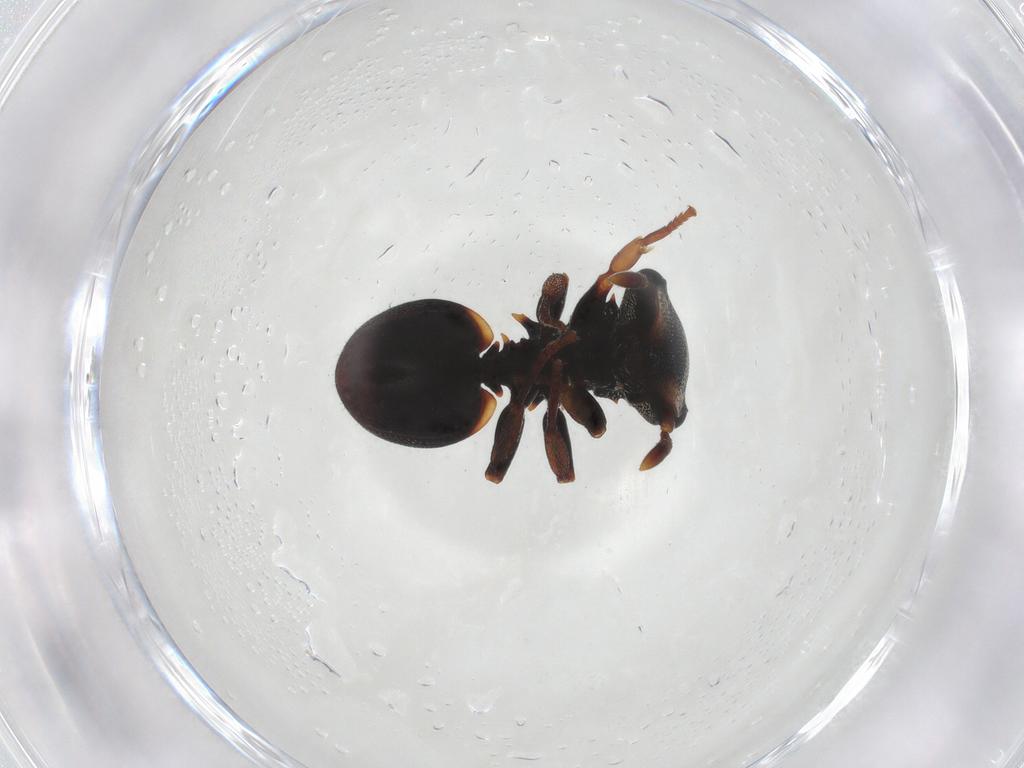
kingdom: Animalia
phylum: Arthropoda
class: Insecta
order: Hymenoptera
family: Formicidae
